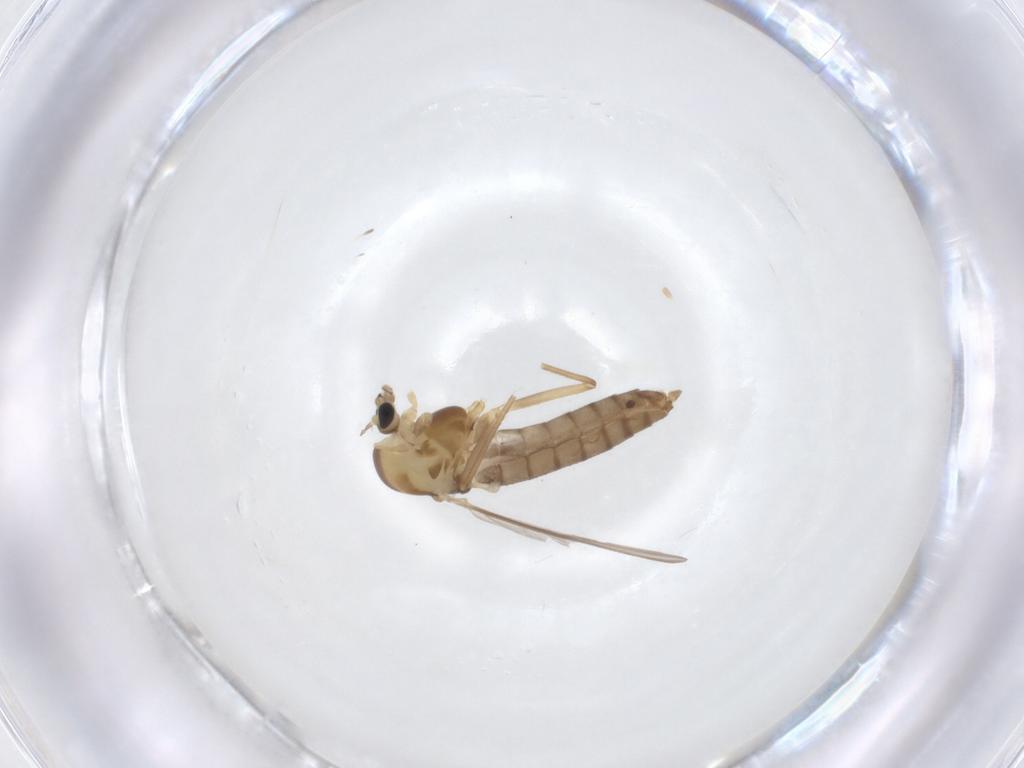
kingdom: Animalia
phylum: Arthropoda
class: Insecta
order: Diptera
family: Chironomidae
